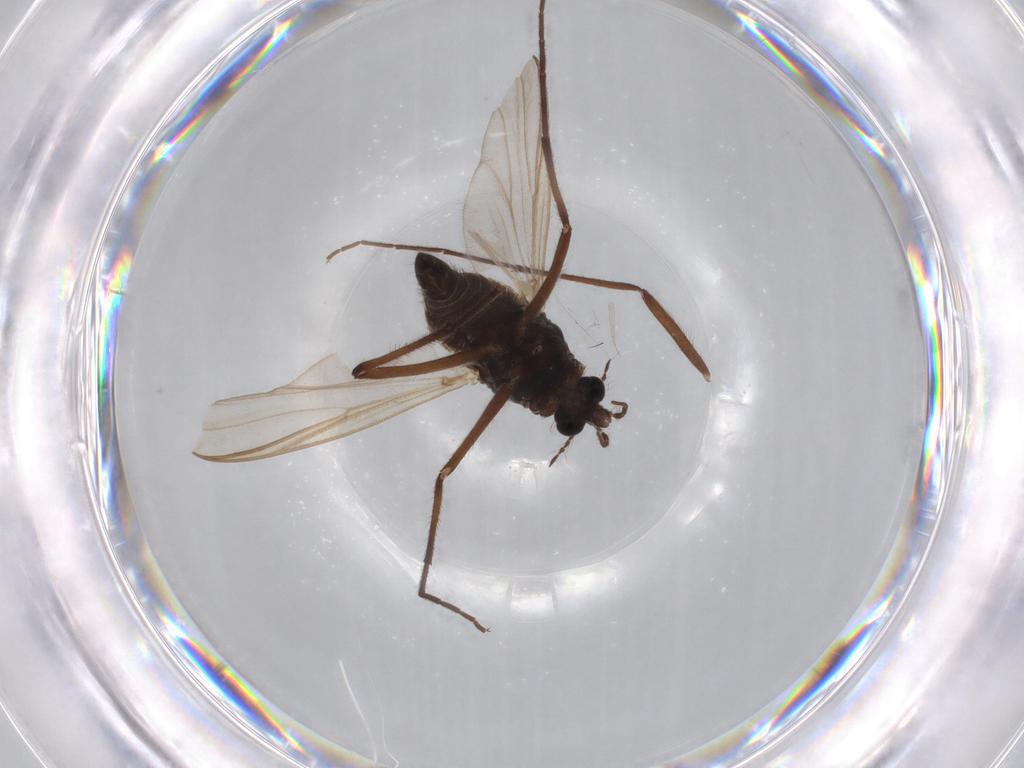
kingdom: Animalia
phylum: Arthropoda
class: Insecta
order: Diptera
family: Sphaeroceridae
